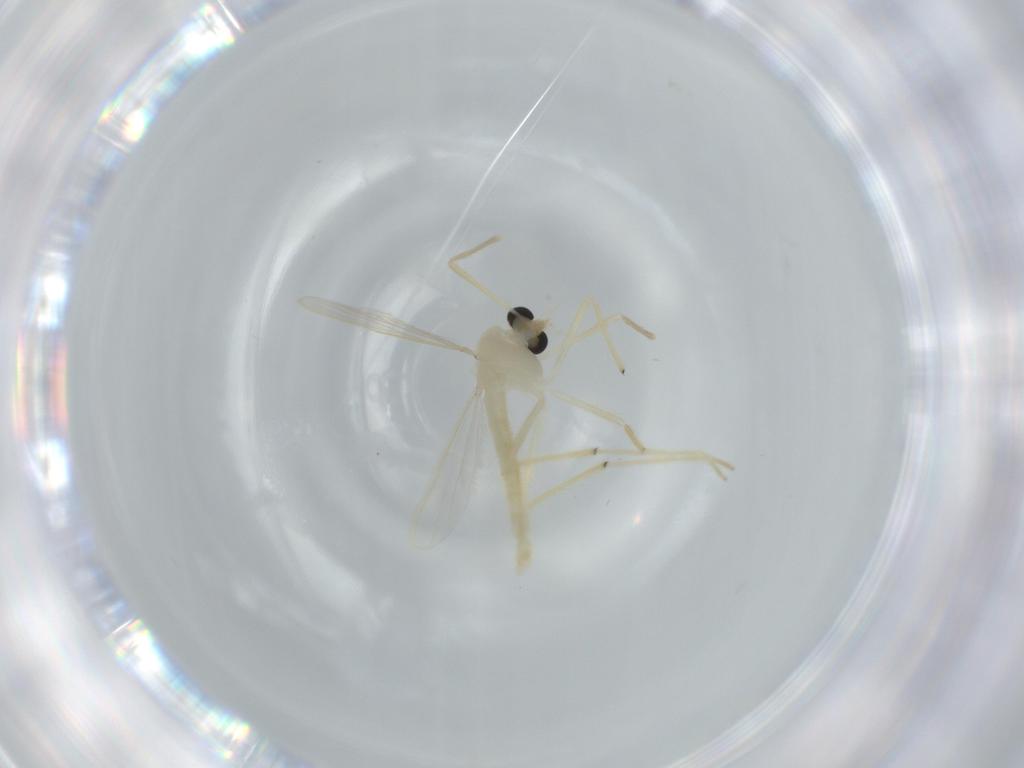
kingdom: Animalia
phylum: Arthropoda
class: Insecta
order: Diptera
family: Chironomidae
